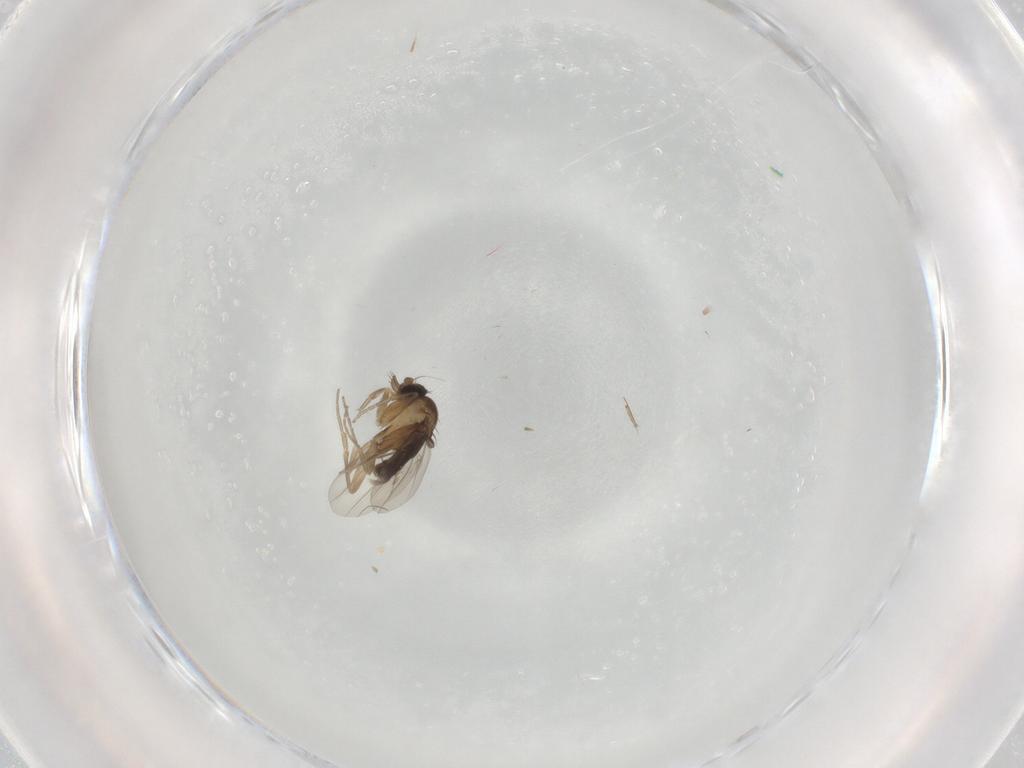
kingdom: Animalia
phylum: Arthropoda
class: Insecta
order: Diptera
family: Phoridae
